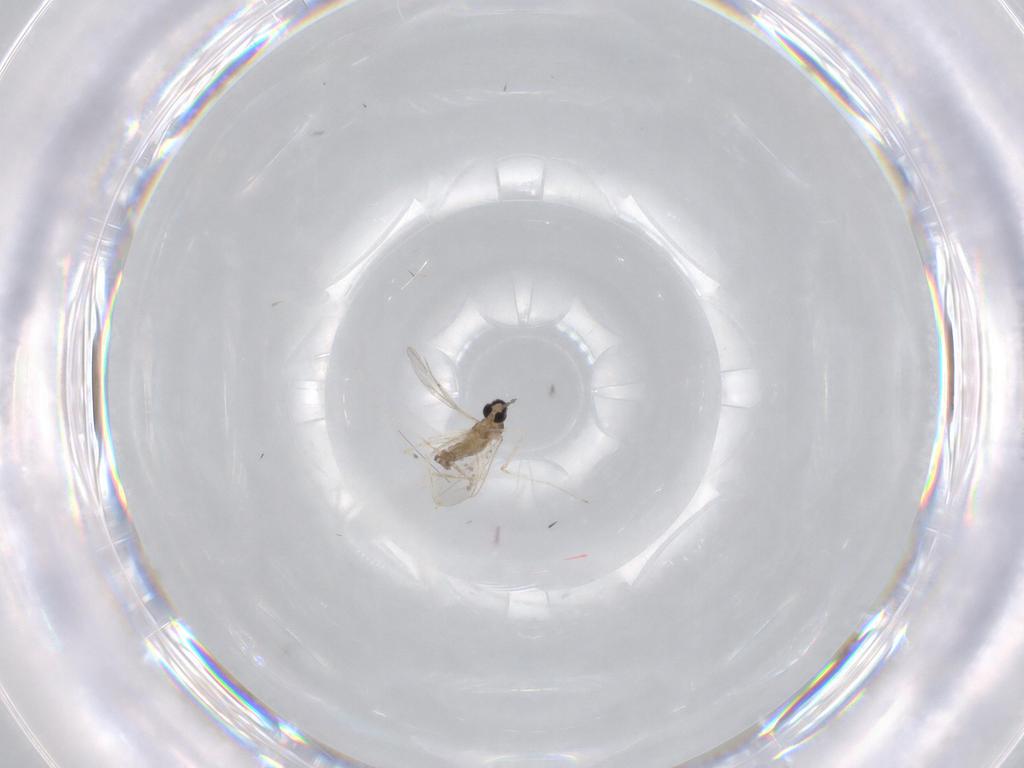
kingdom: Animalia
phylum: Arthropoda
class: Insecta
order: Diptera
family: Cecidomyiidae
